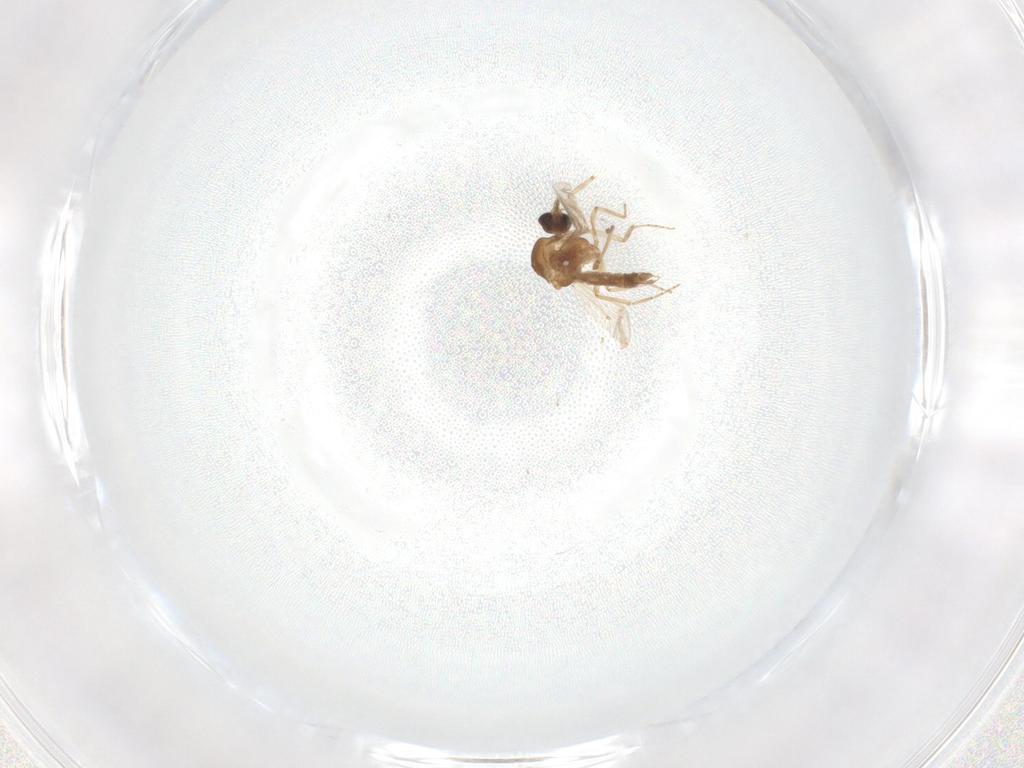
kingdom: Animalia
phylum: Arthropoda
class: Insecta
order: Diptera
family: Ceratopogonidae
